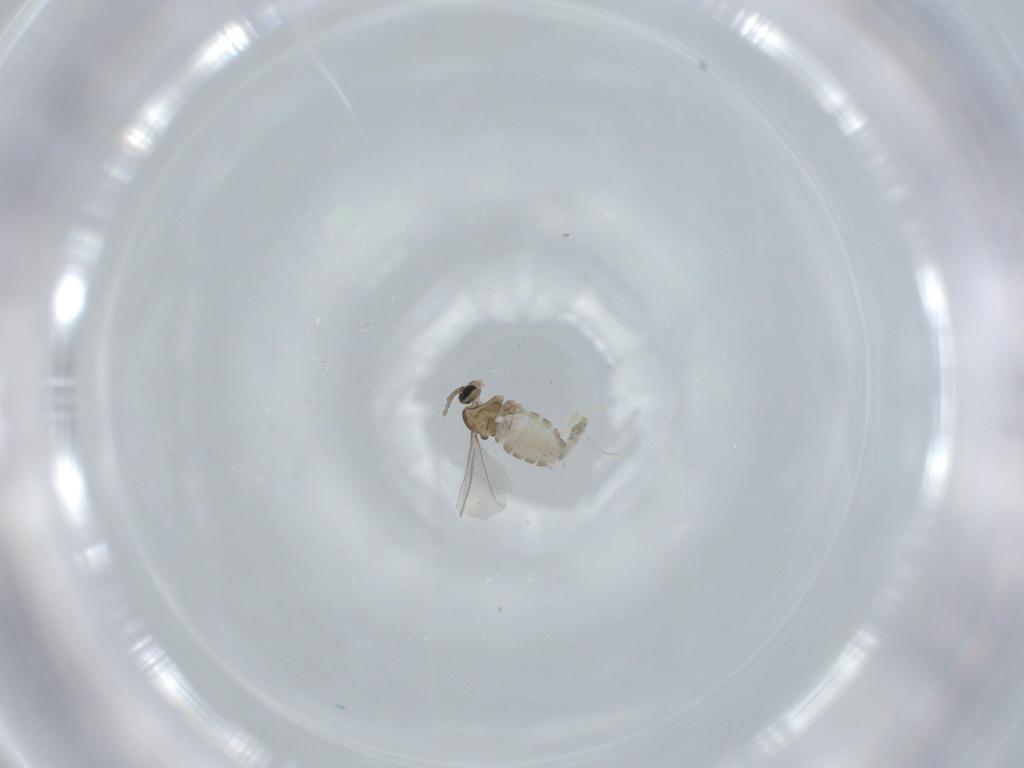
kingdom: Animalia
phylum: Arthropoda
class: Insecta
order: Diptera
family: Cecidomyiidae
